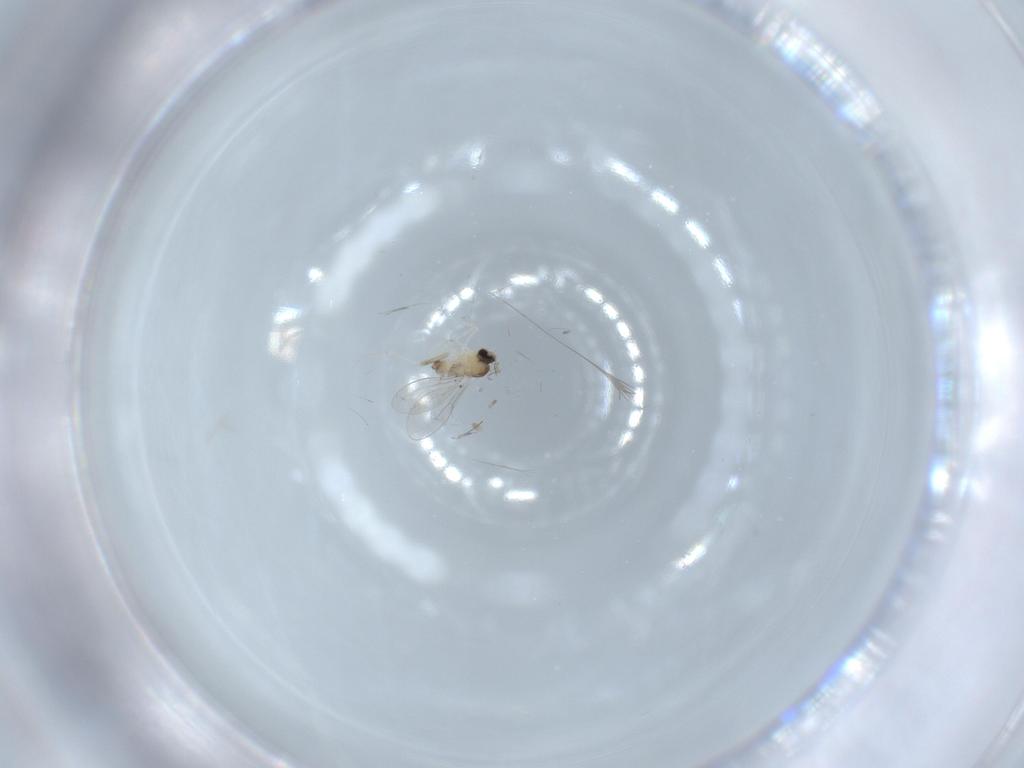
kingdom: Animalia
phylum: Arthropoda
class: Insecta
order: Diptera
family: Cecidomyiidae
